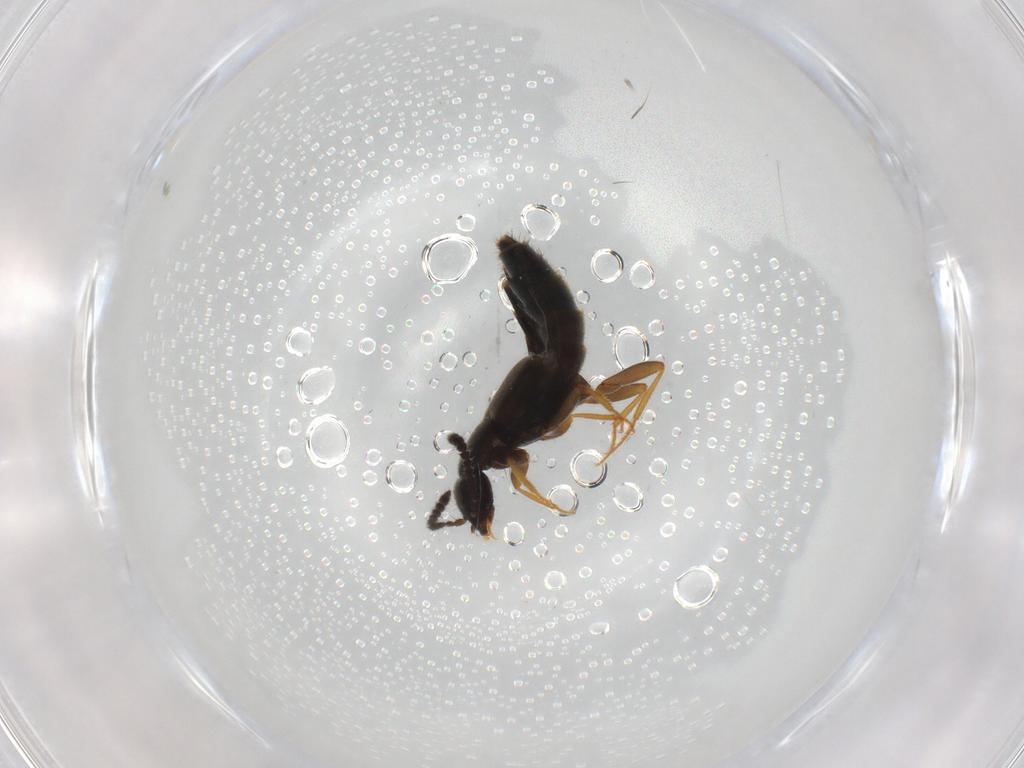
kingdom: Animalia
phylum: Arthropoda
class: Insecta
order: Coleoptera
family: Staphylinidae
